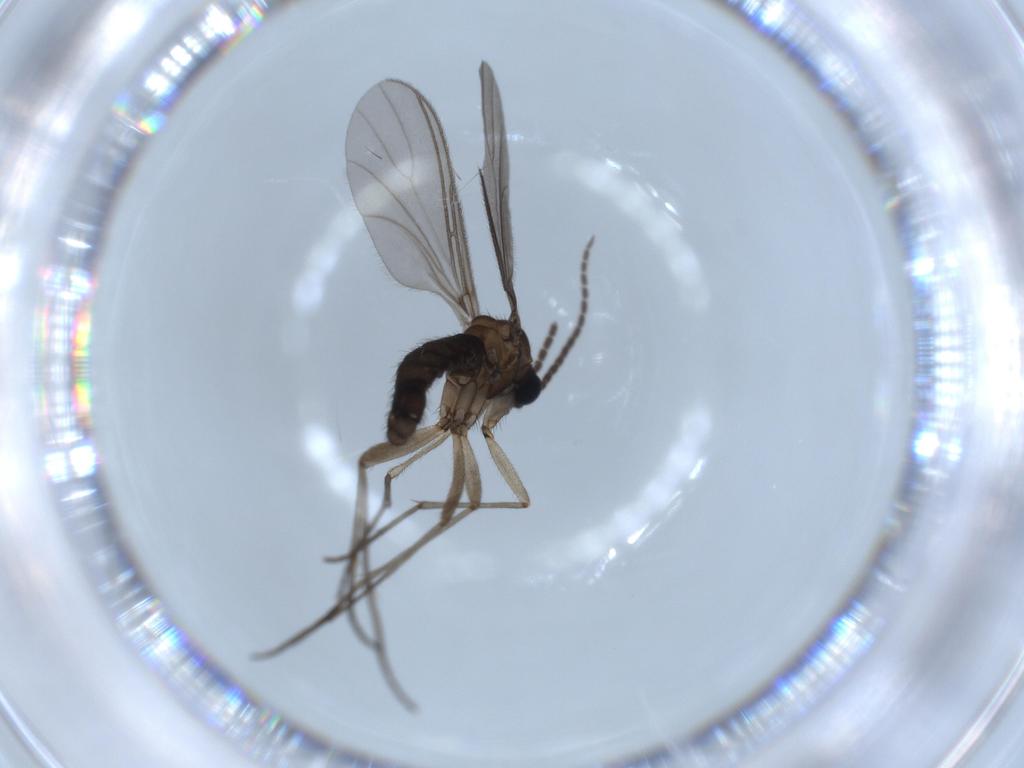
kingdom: Animalia
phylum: Arthropoda
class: Insecta
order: Diptera
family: Sciaridae
